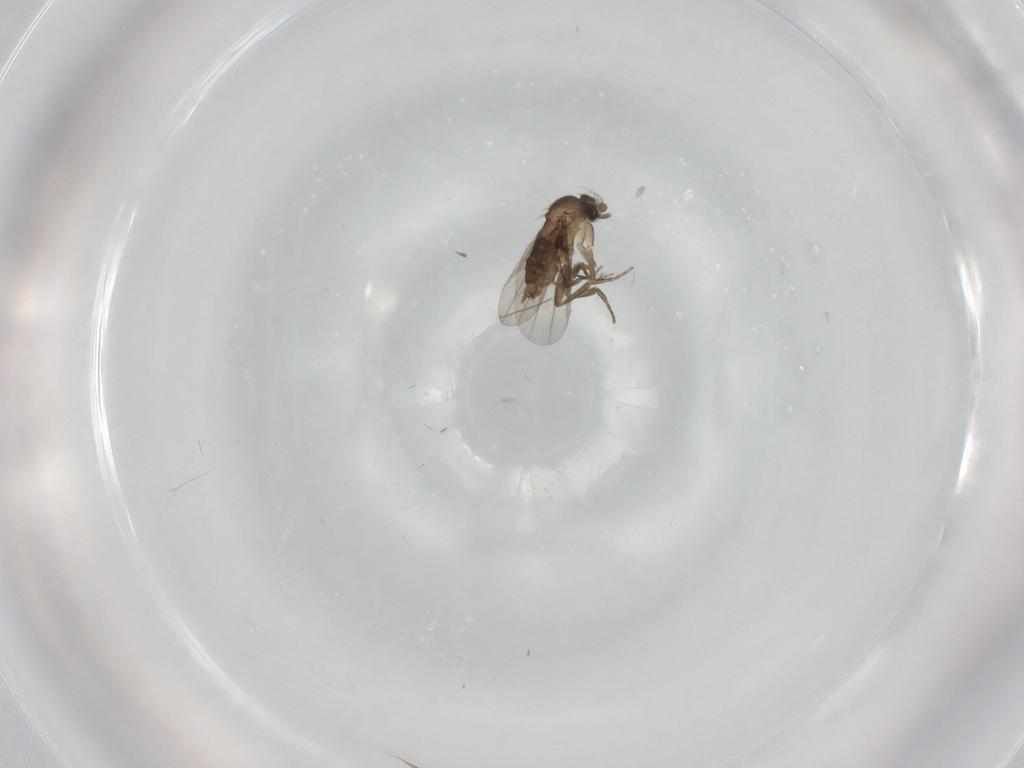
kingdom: Animalia
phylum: Arthropoda
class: Insecta
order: Diptera
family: Phoridae
